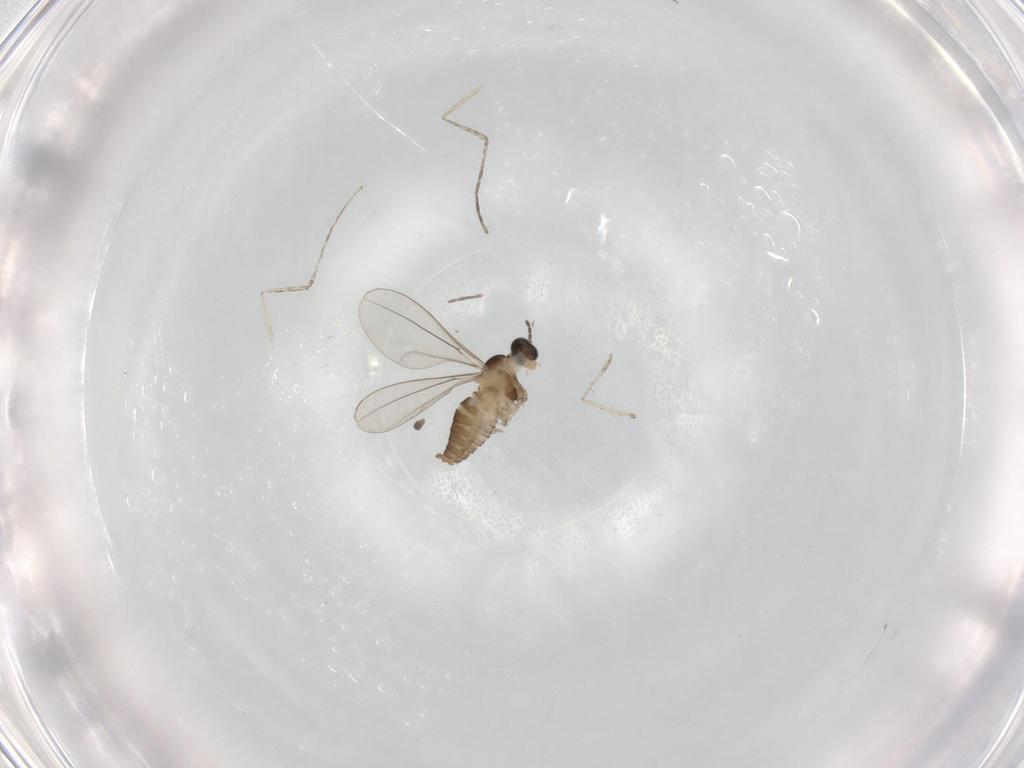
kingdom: Animalia
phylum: Arthropoda
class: Insecta
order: Diptera
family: Cecidomyiidae
